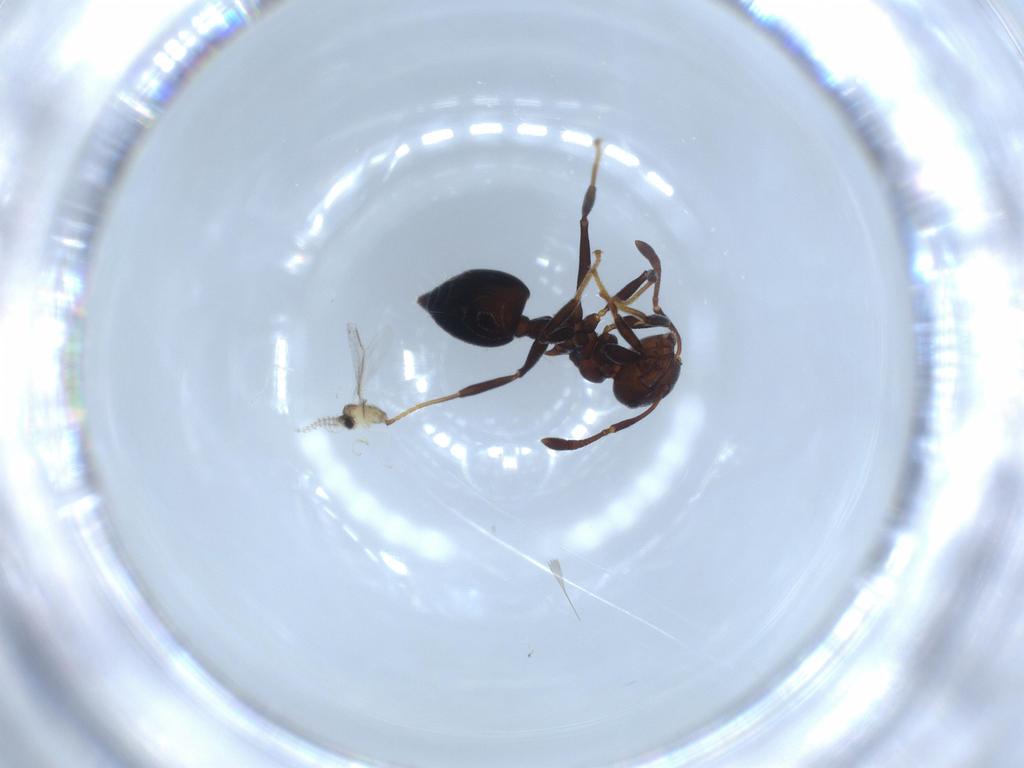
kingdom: Animalia
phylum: Arthropoda
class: Insecta
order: Diptera
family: Cecidomyiidae
